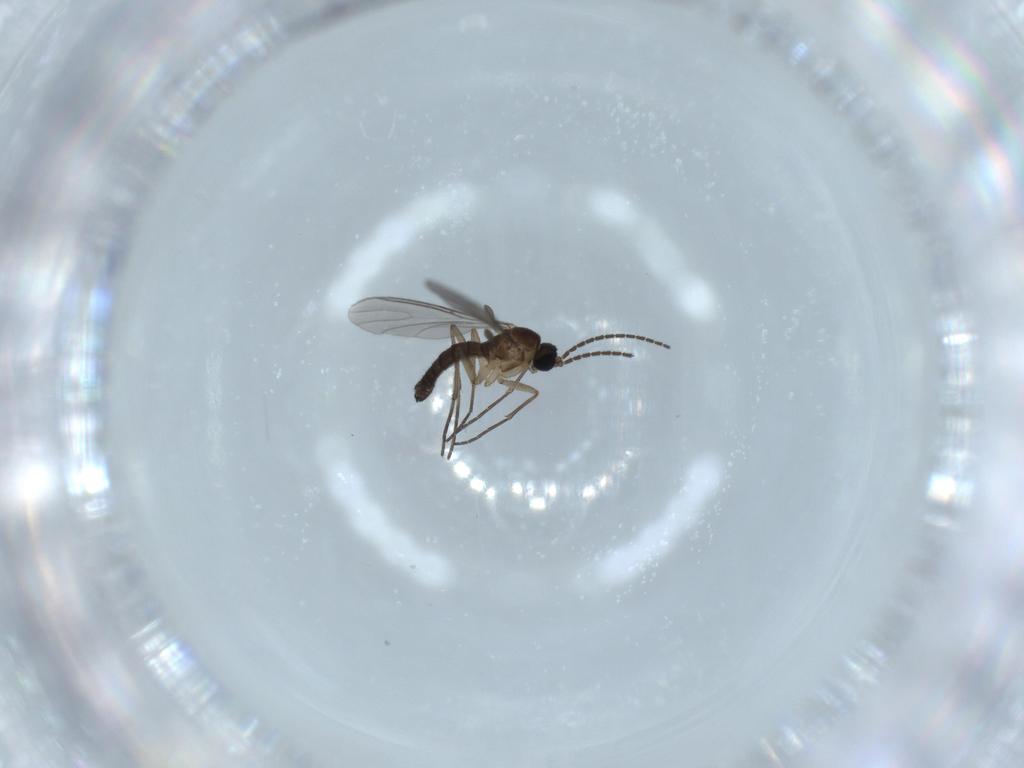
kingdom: Animalia
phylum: Arthropoda
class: Insecta
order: Diptera
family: Sciaridae
